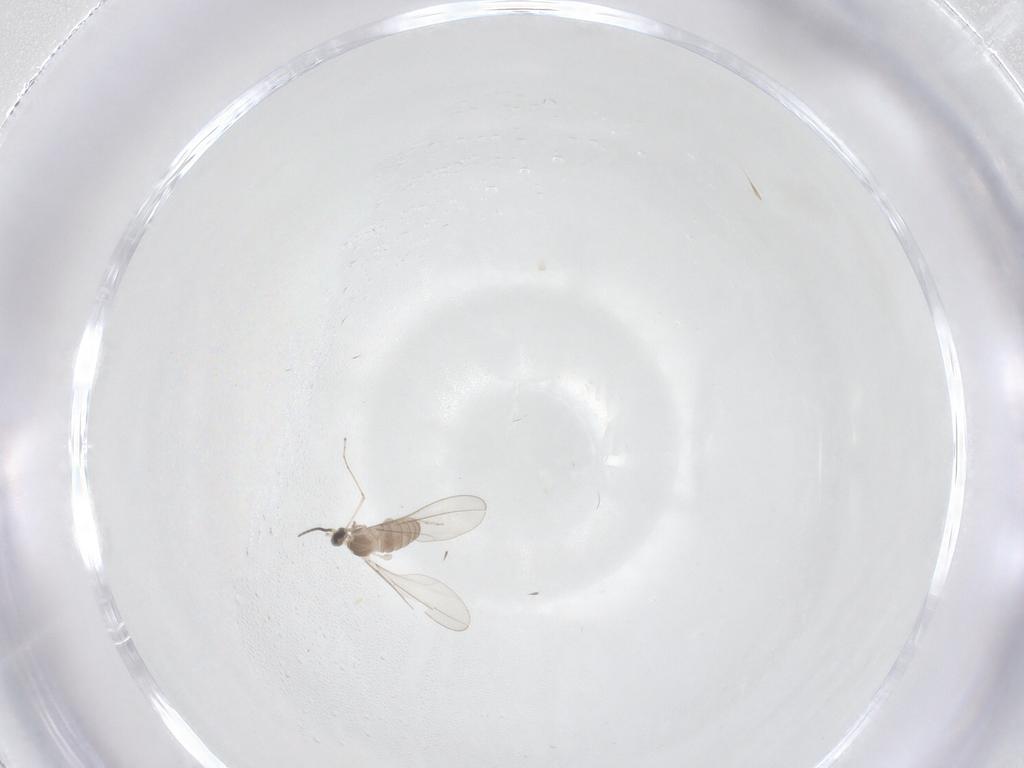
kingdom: Animalia
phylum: Arthropoda
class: Insecta
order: Diptera
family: Cecidomyiidae
